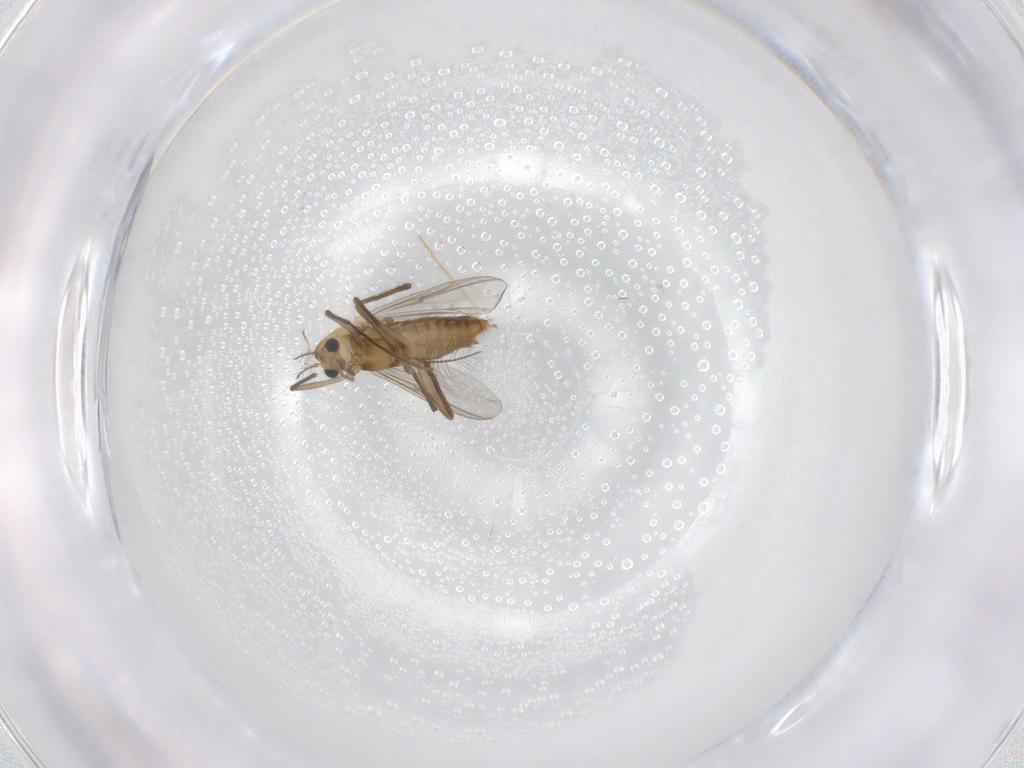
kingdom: Animalia
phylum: Arthropoda
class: Insecta
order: Diptera
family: Chironomidae
